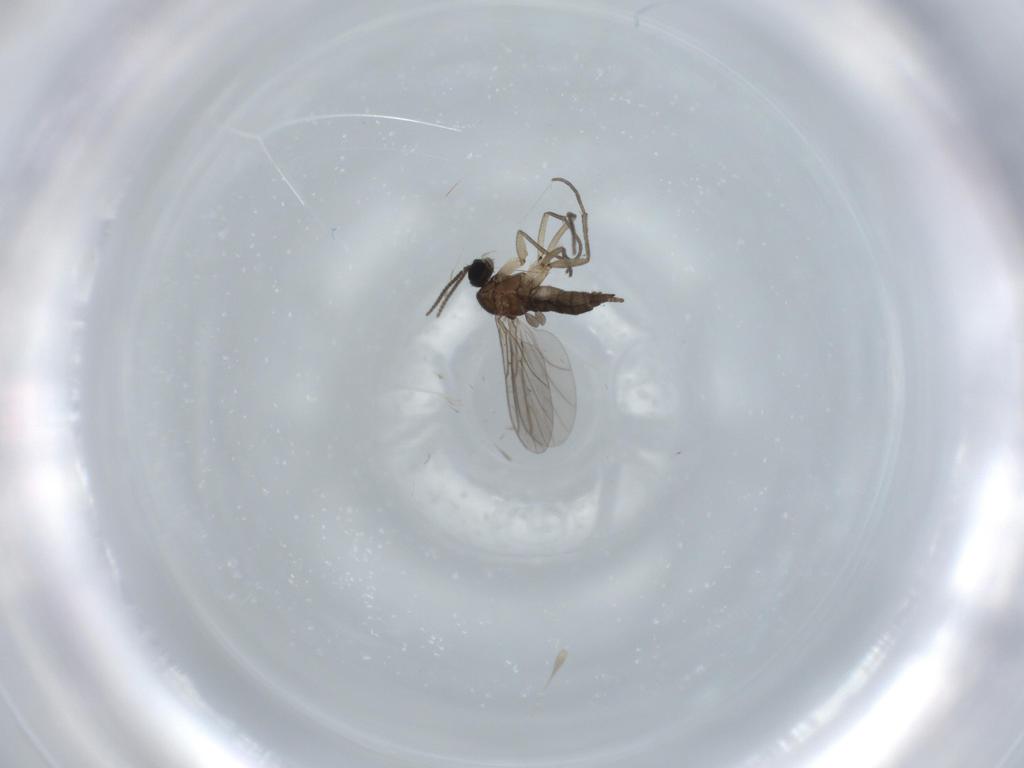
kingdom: Animalia
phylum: Arthropoda
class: Insecta
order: Diptera
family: Sciaridae
